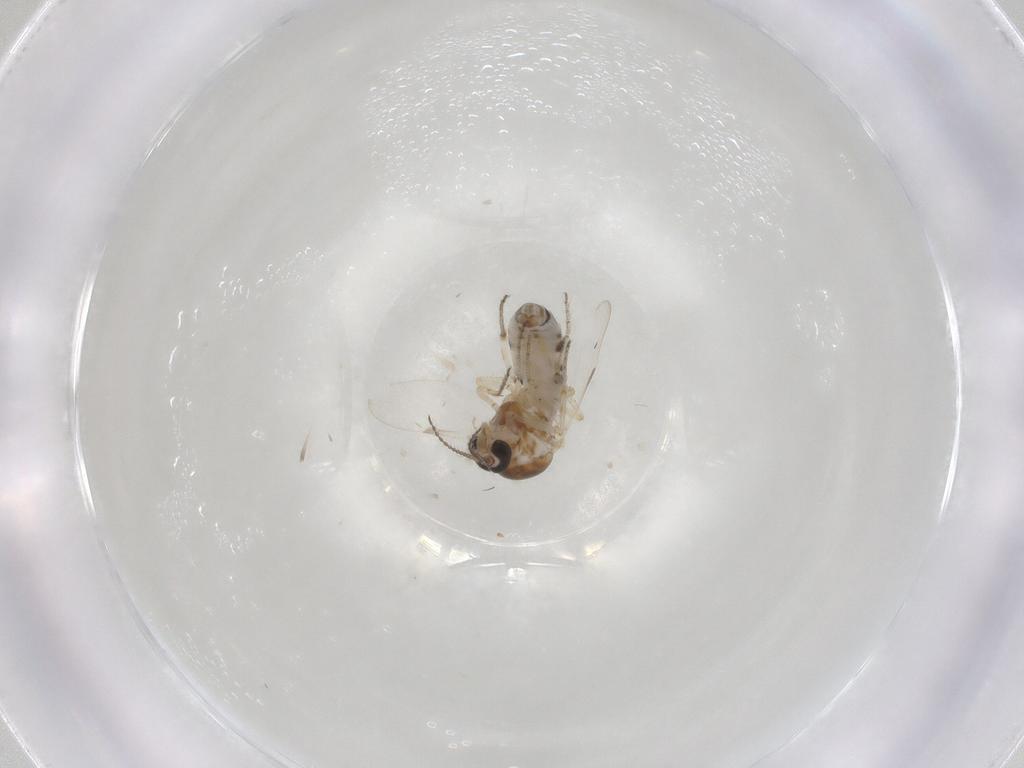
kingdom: Animalia
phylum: Arthropoda
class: Insecta
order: Diptera
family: Ceratopogonidae
